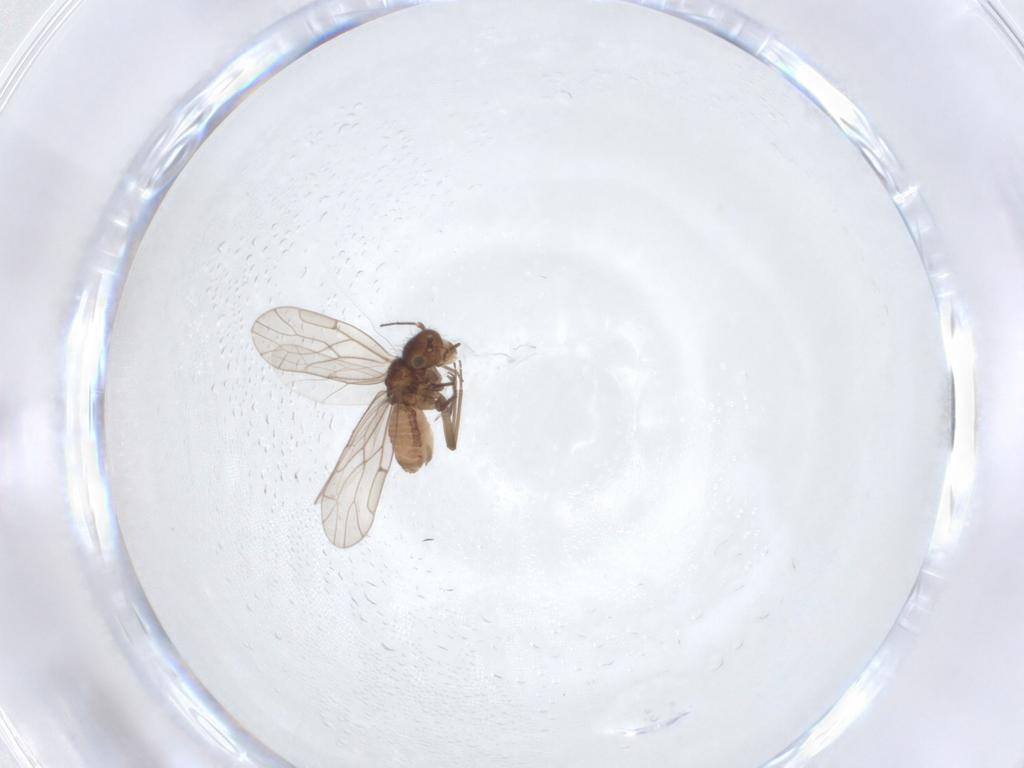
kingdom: Animalia
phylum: Arthropoda
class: Insecta
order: Psocodea
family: Ectopsocidae
